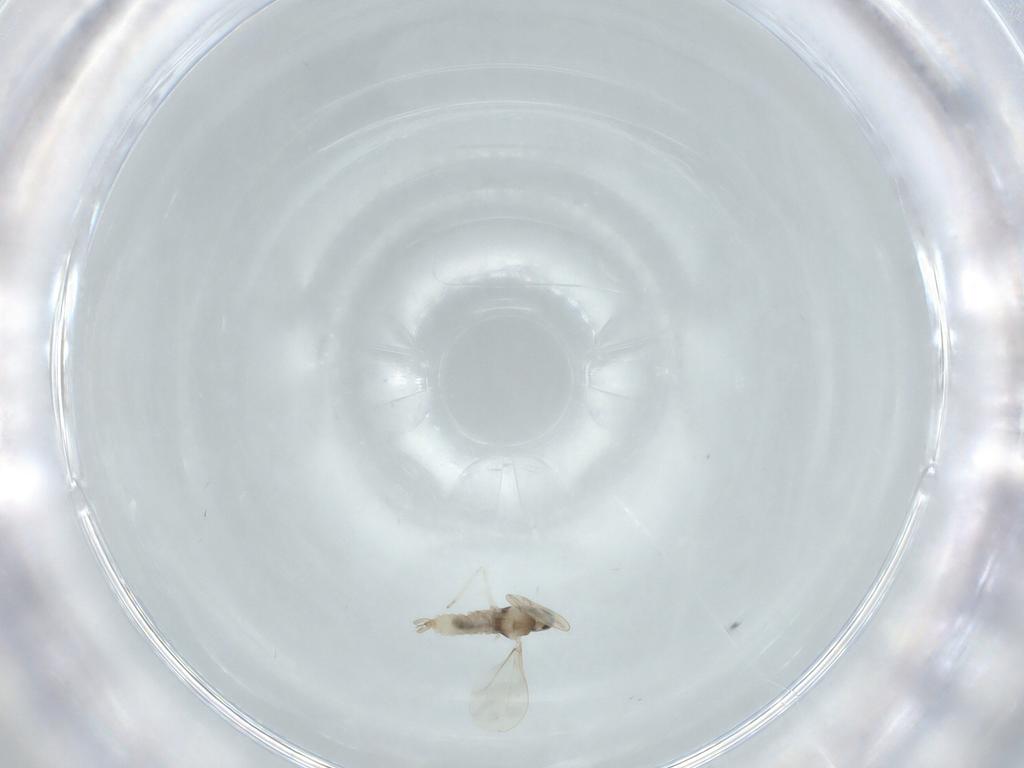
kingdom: Animalia
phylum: Arthropoda
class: Insecta
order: Diptera
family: Cecidomyiidae
